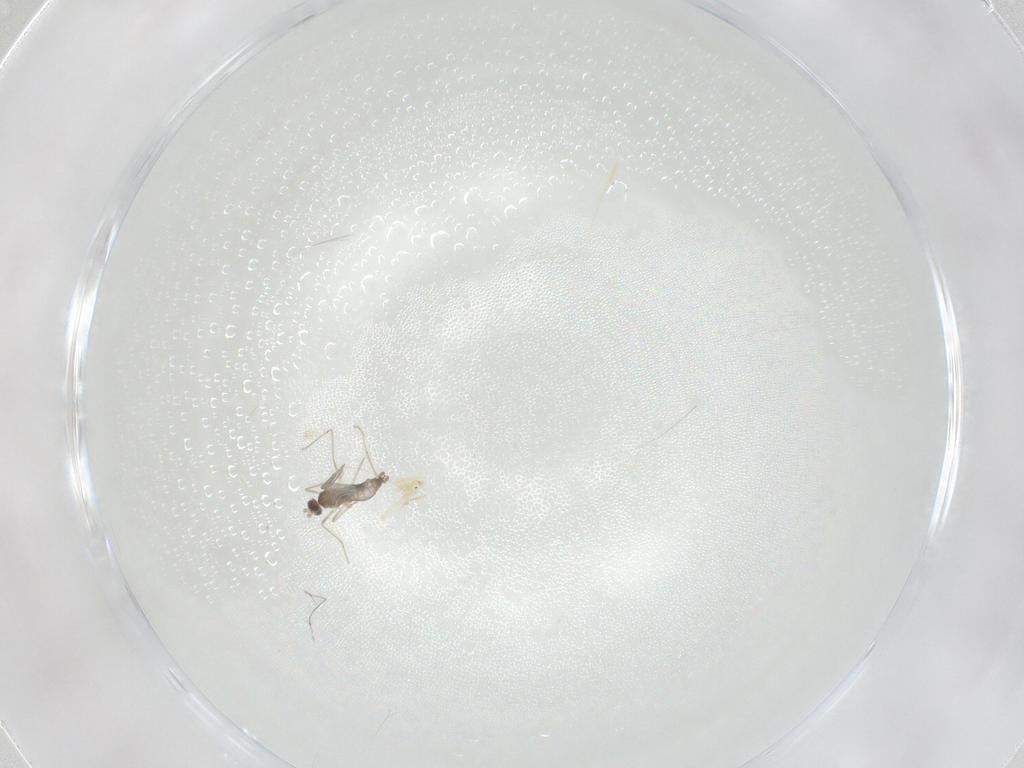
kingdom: Animalia
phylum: Arthropoda
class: Insecta
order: Diptera
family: Cecidomyiidae
